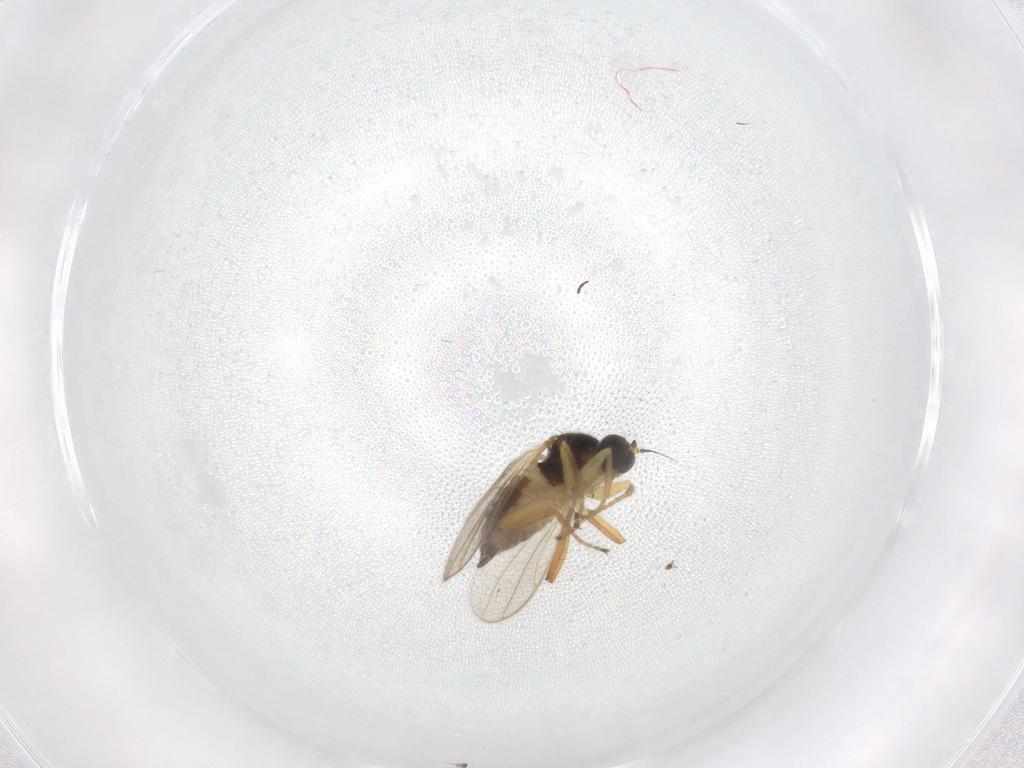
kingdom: Animalia
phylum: Arthropoda
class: Insecta
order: Diptera
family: Hybotidae
